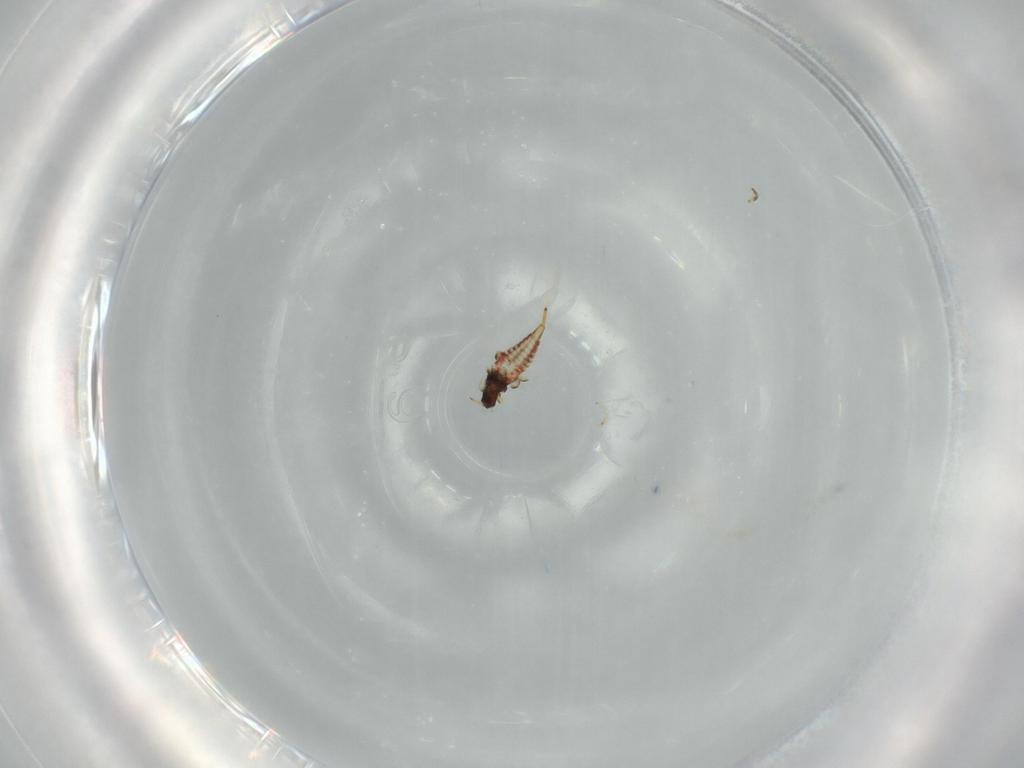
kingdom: Animalia
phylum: Arthropoda
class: Insecta
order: Thysanoptera
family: Phlaeothripidae
